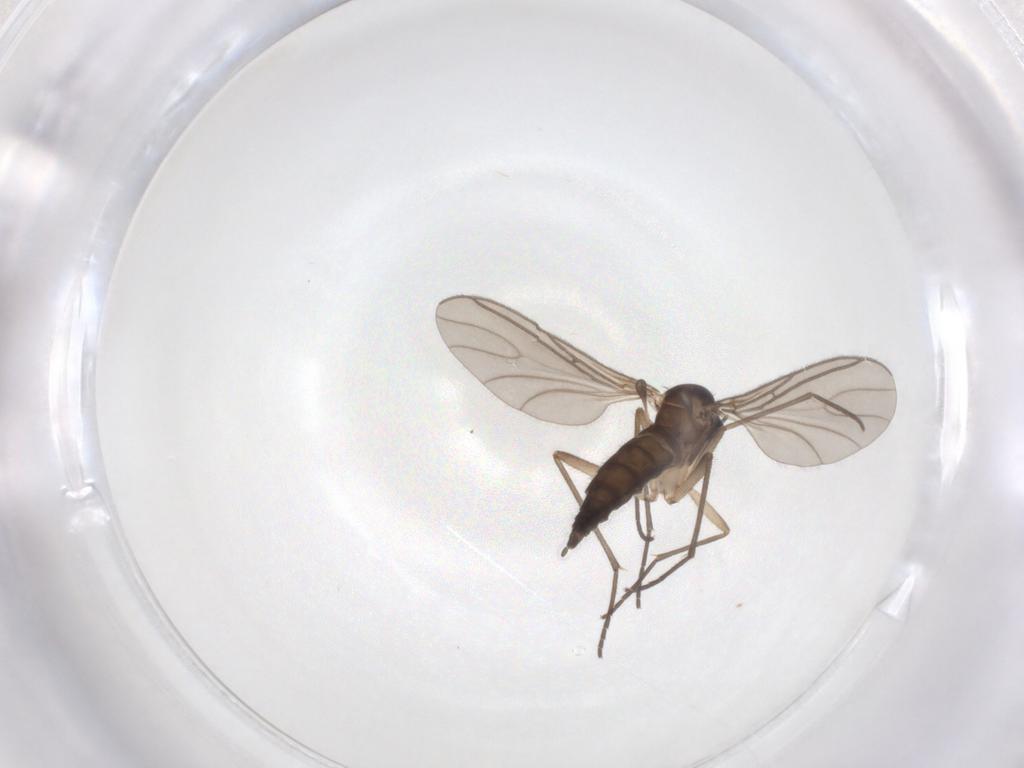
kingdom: Animalia
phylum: Arthropoda
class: Insecta
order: Diptera
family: Sciaridae
